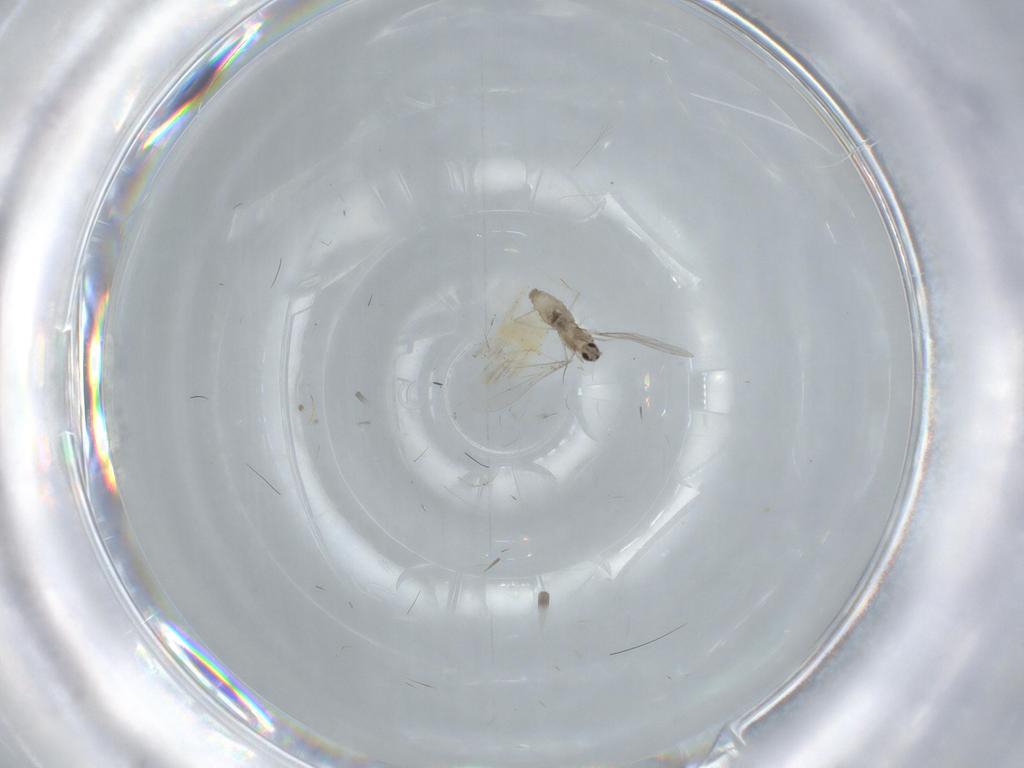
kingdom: Animalia
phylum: Arthropoda
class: Insecta
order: Diptera
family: Cecidomyiidae
